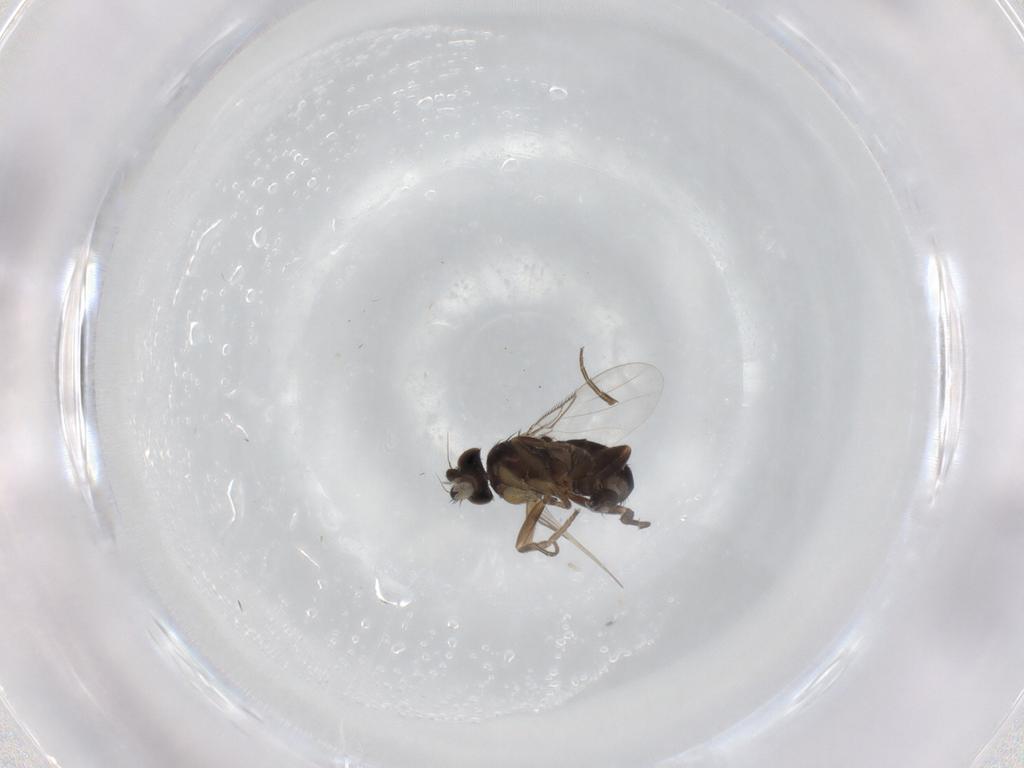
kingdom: Animalia
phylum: Arthropoda
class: Insecta
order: Diptera
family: Phoridae
